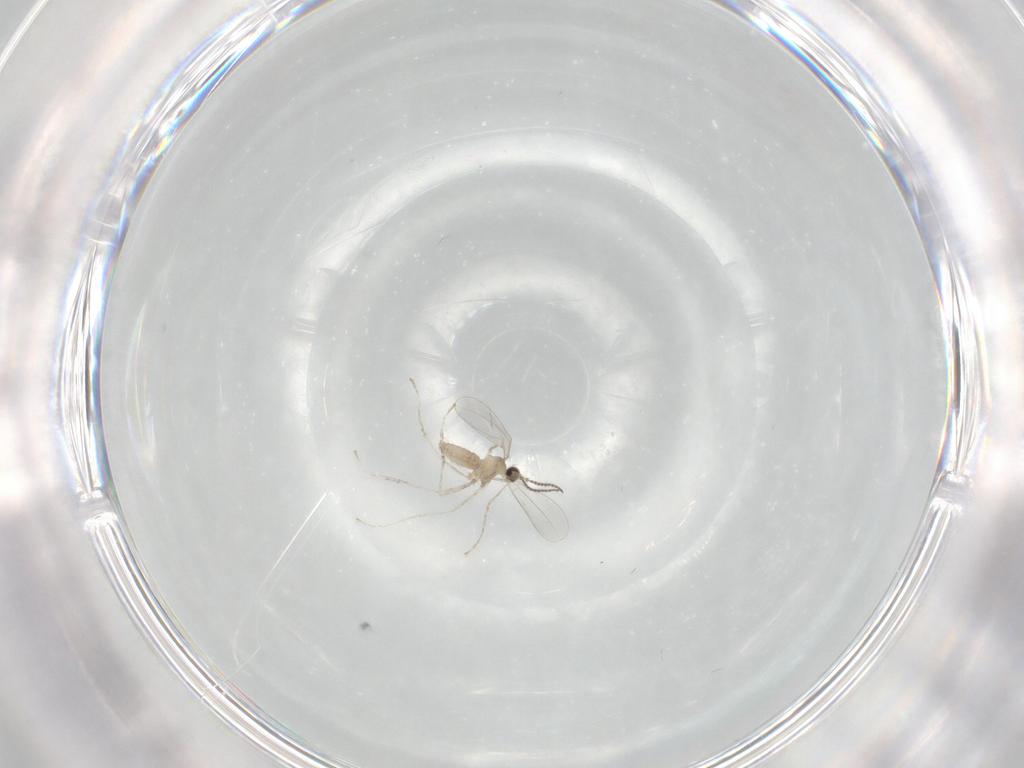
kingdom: Animalia
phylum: Arthropoda
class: Insecta
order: Diptera
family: Cecidomyiidae
